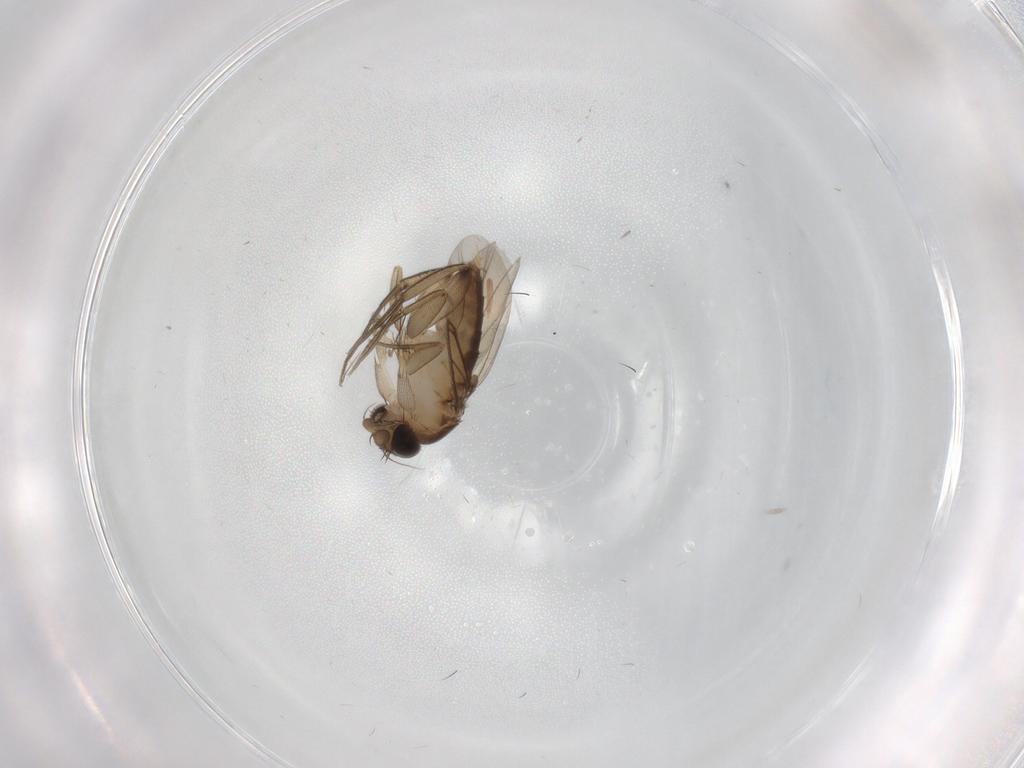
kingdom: Animalia
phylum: Arthropoda
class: Insecta
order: Diptera
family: Phoridae
